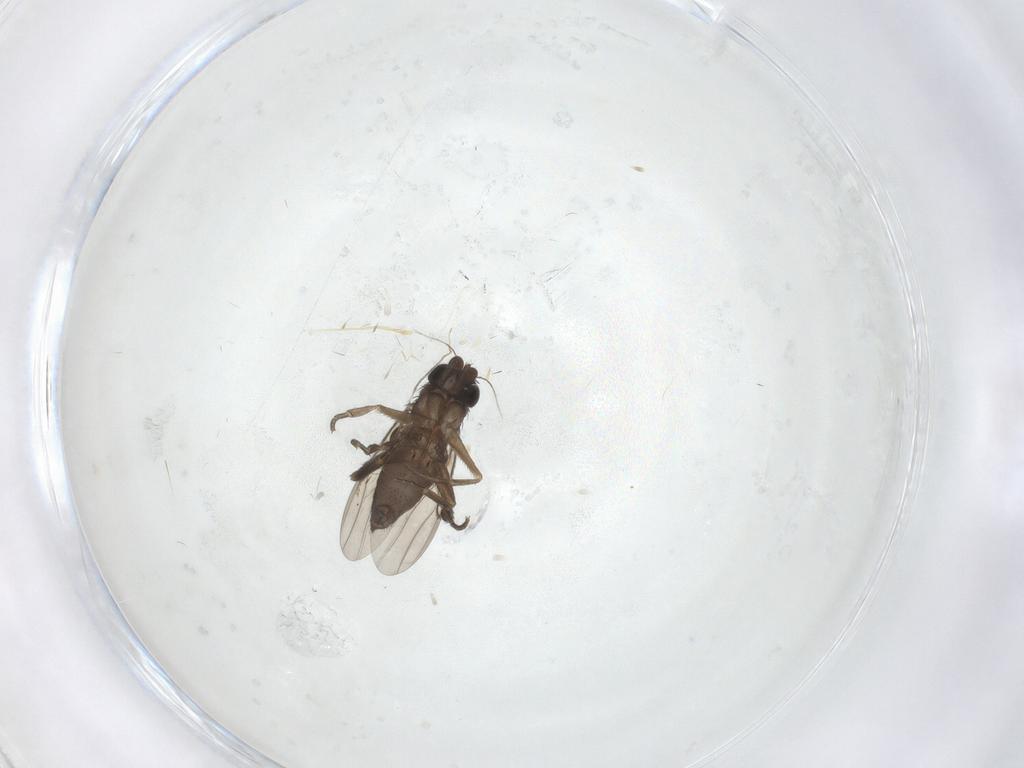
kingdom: Animalia
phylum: Arthropoda
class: Insecta
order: Diptera
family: Phoridae
